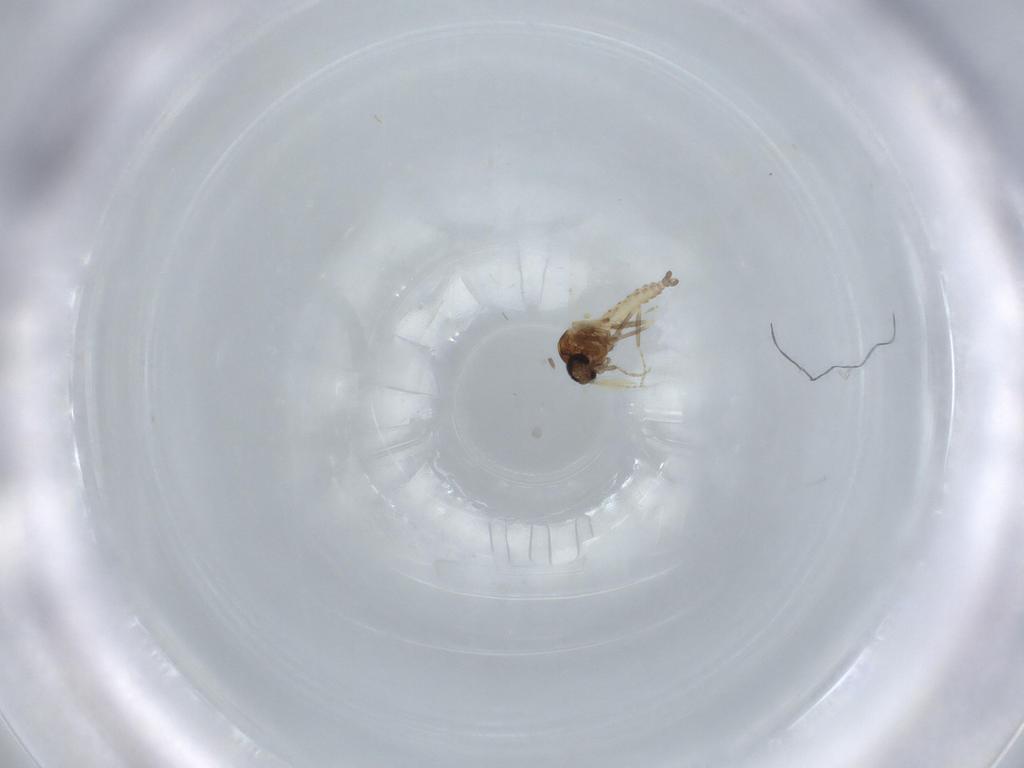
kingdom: Animalia
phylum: Arthropoda
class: Insecta
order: Diptera
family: Ceratopogonidae
